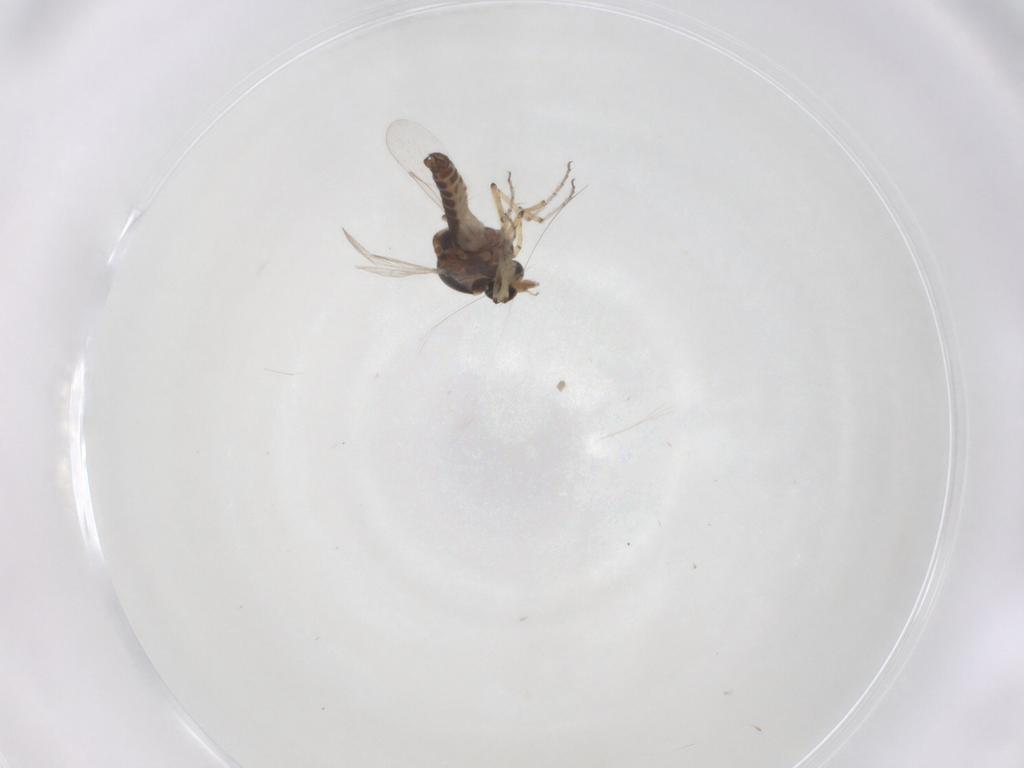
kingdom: Animalia
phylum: Arthropoda
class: Insecta
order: Diptera
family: Ceratopogonidae
